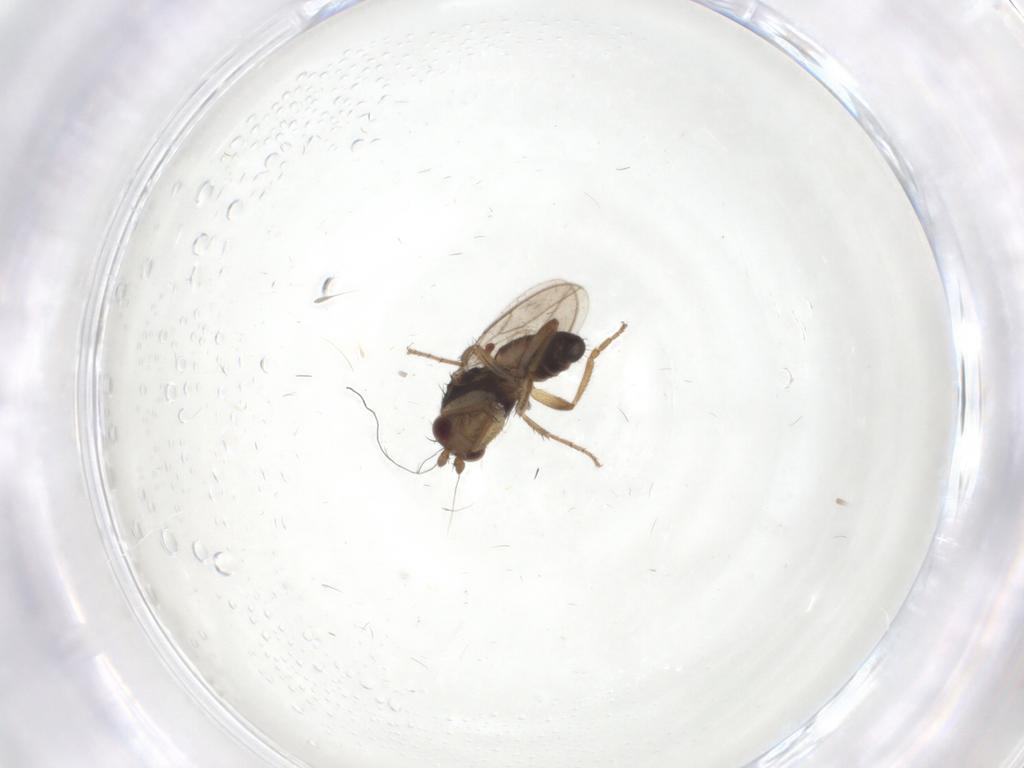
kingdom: Animalia
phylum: Arthropoda
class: Insecta
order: Diptera
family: Sphaeroceridae
